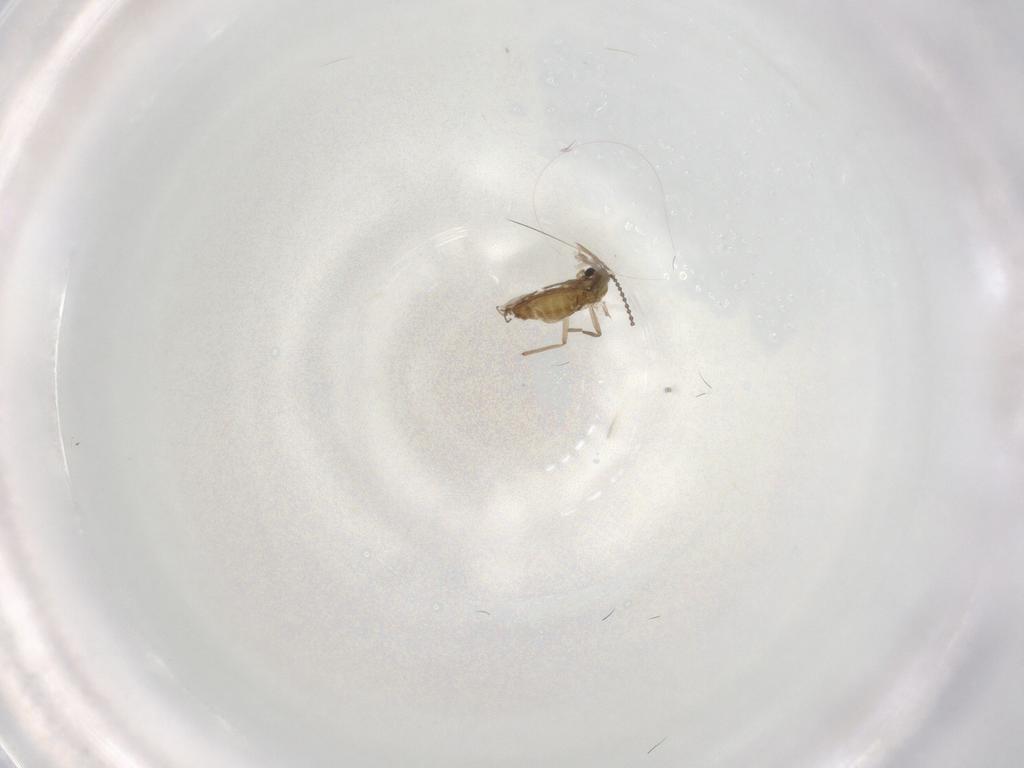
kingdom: Animalia
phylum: Arthropoda
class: Insecta
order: Diptera
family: Chironomidae
